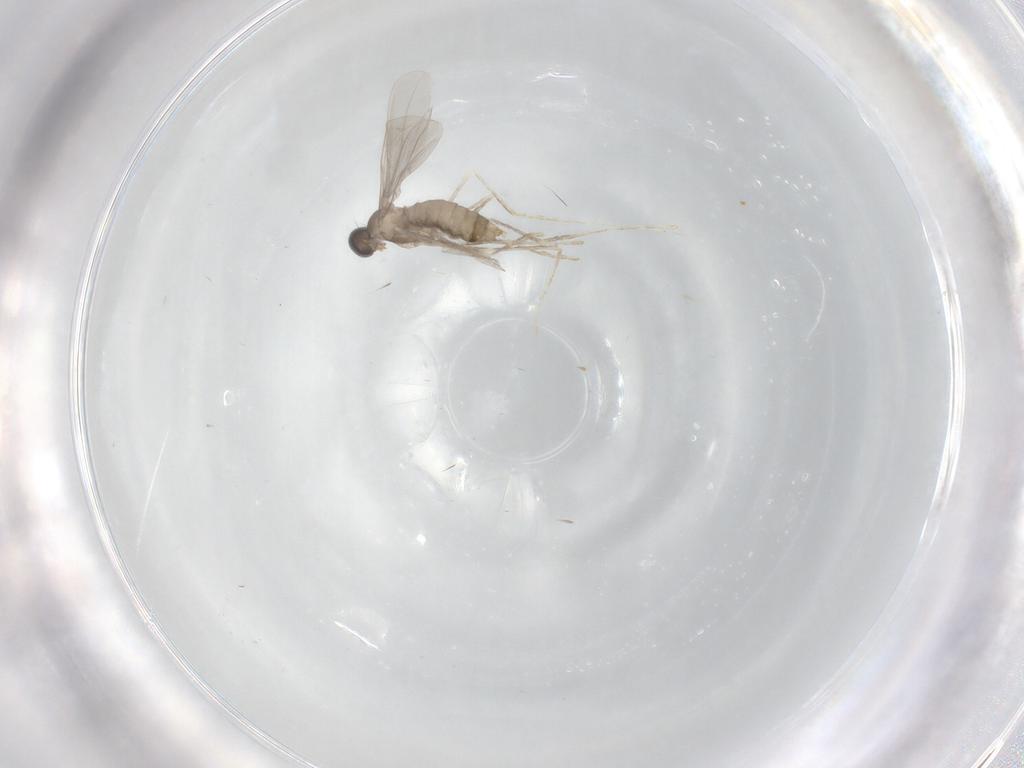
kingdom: Animalia
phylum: Arthropoda
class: Insecta
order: Diptera
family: Cecidomyiidae
